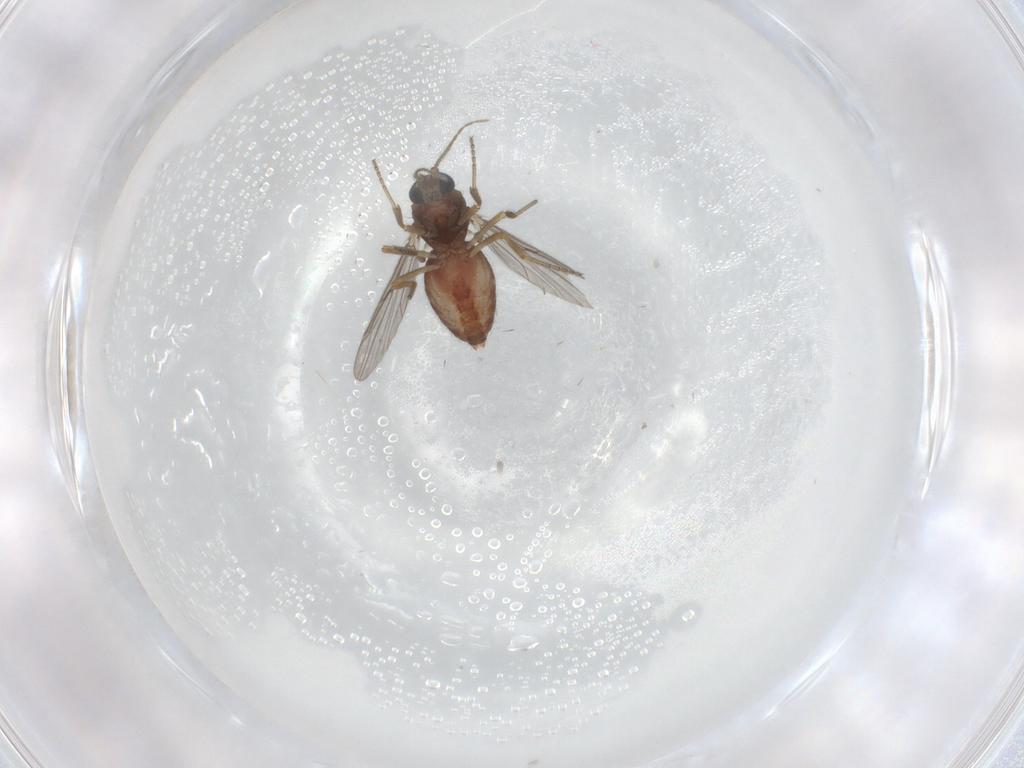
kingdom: Animalia
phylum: Arthropoda
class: Insecta
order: Diptera
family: Ceratopogonidae
